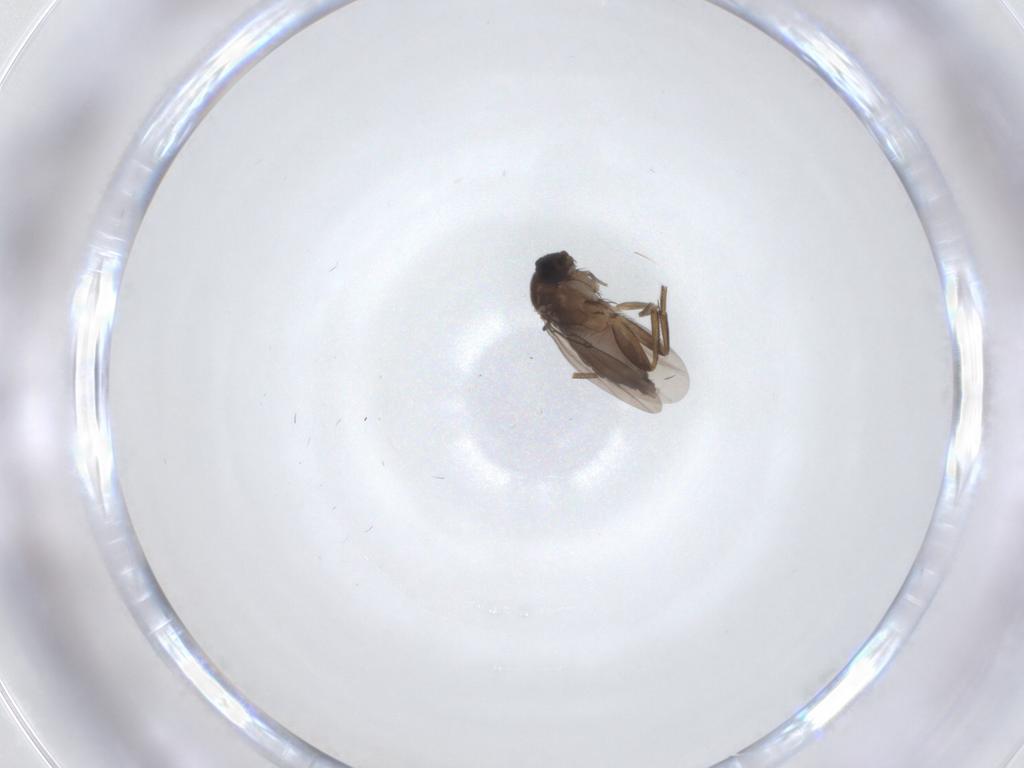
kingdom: Animalia
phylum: Arthropoda
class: Insecta
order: Diptera
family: Phoridae
